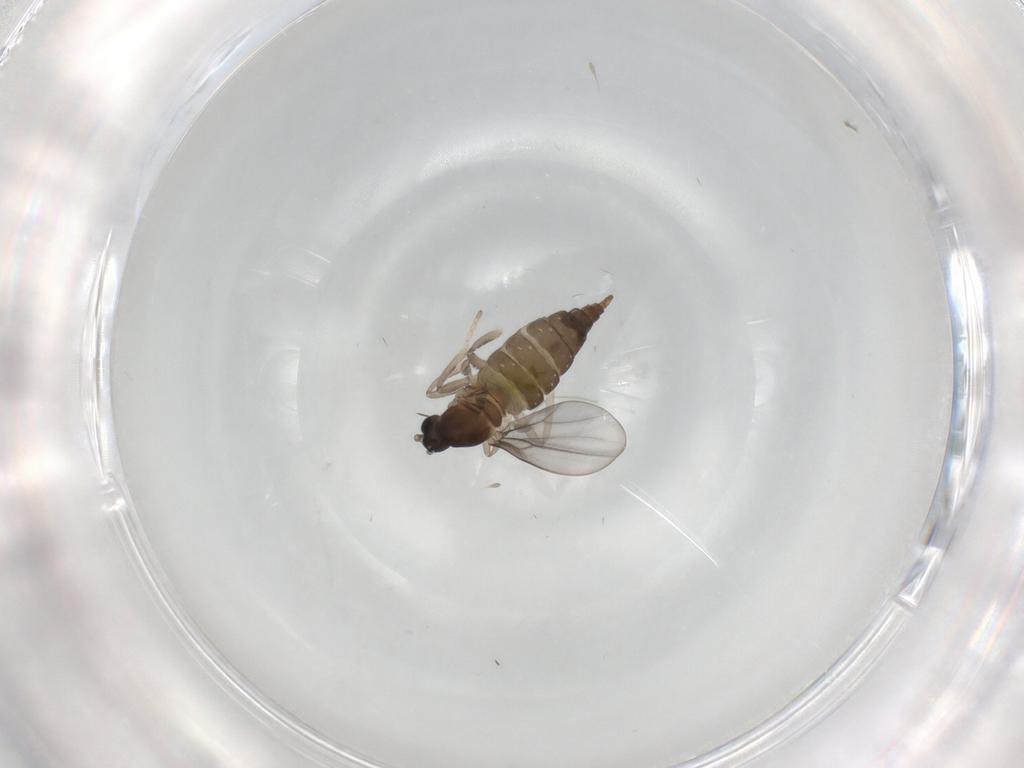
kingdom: Animalia
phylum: Arthropoda
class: Insecta
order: Diptera
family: Cecidomyiidae
